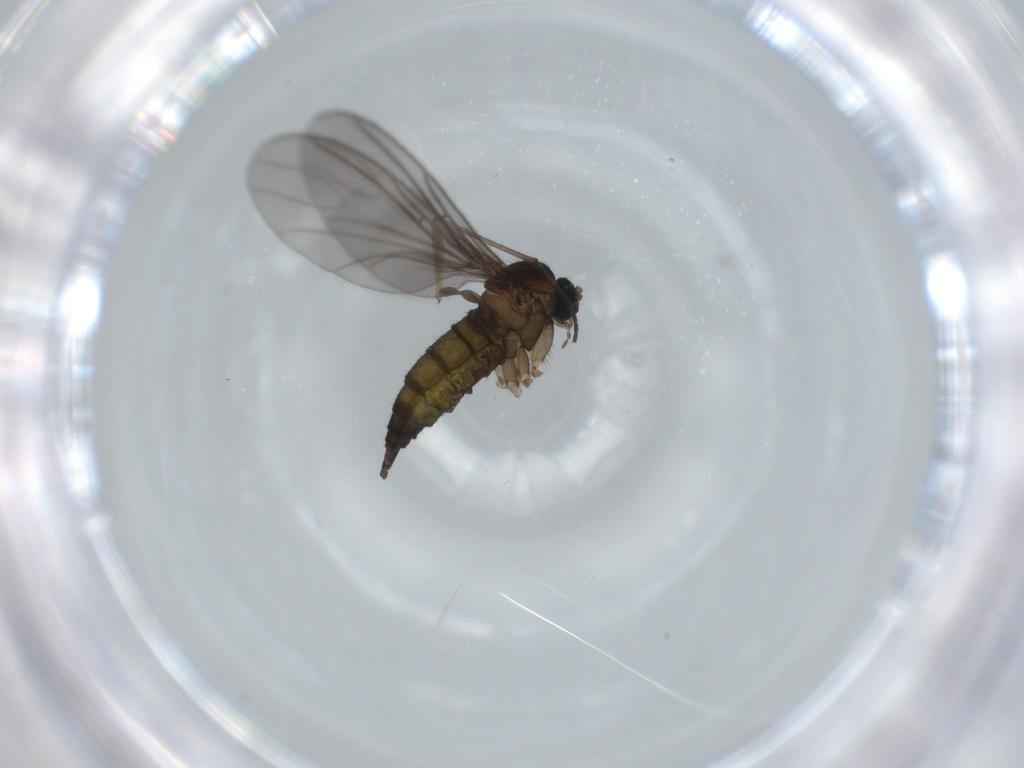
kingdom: Animalia
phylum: Arthropoda
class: Insecta
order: Diptera
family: Sciaridae
